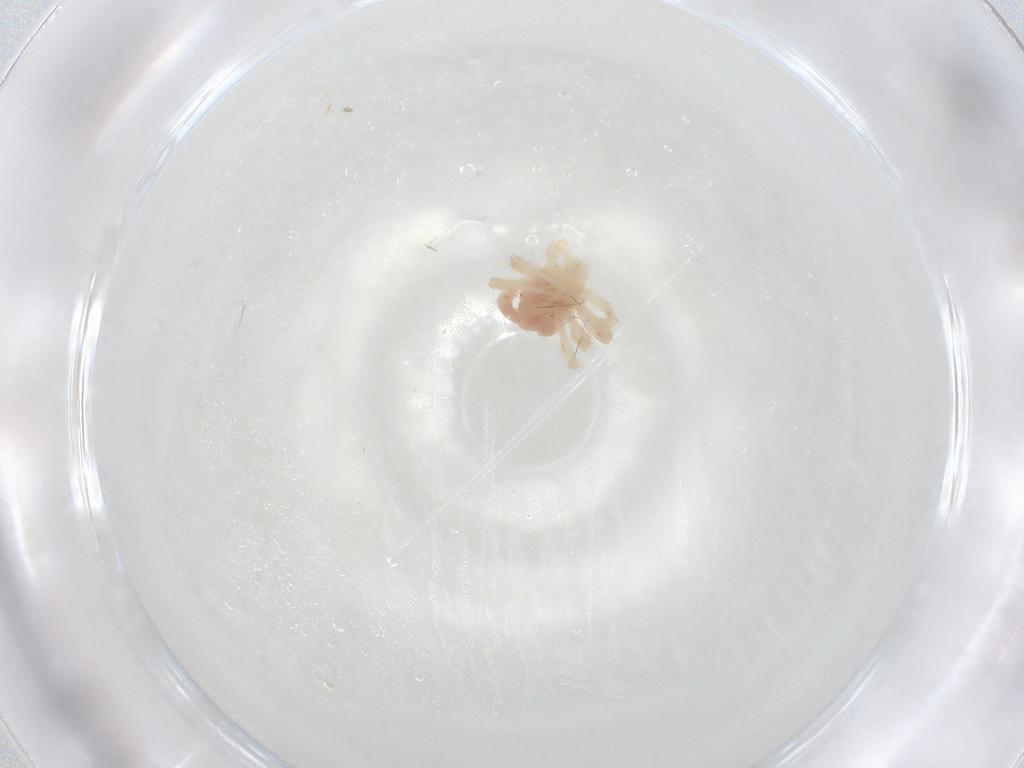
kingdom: Animalia
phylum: Arthropoda
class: Arachnida
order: Trombidiformes
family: Anystidae
